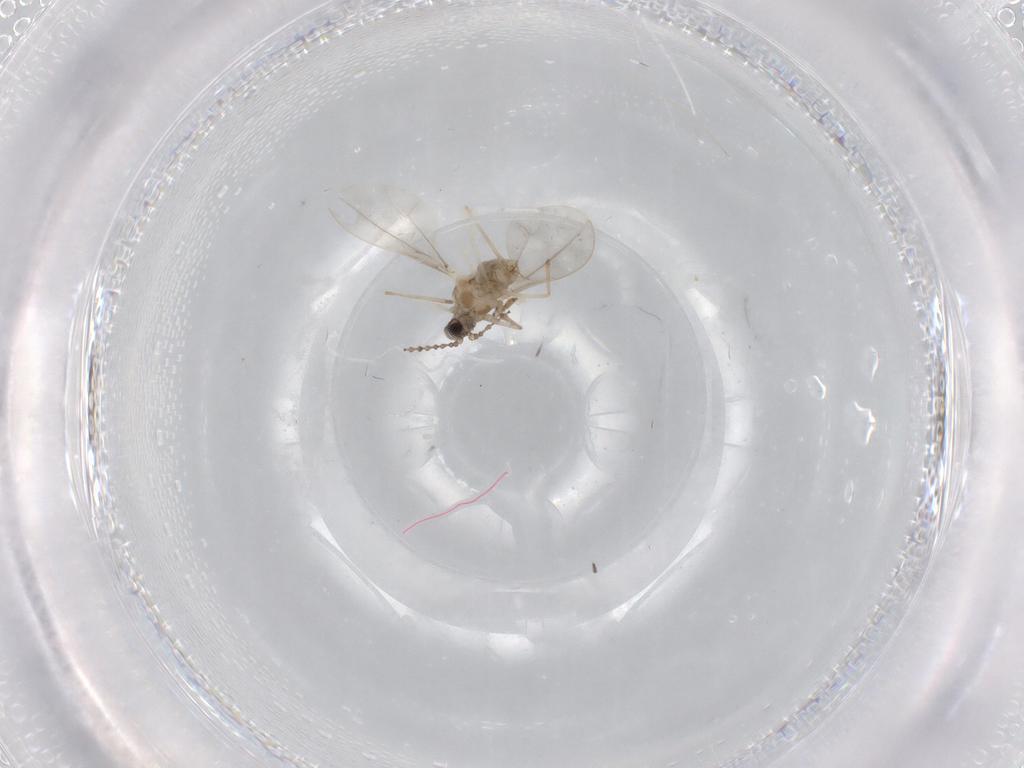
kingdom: Animalia
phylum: Arthropoda
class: Insecta
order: Diptera
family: Cecidomyiidae
